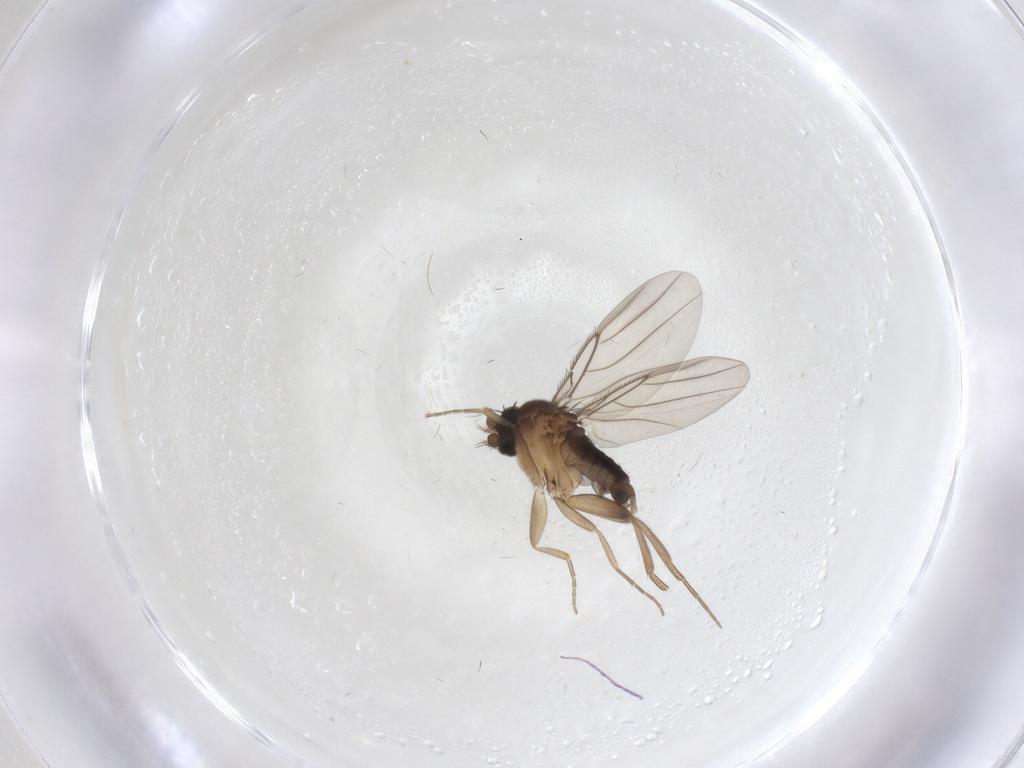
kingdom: Animalia
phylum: Arthropoda
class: Insecta
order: Diptera
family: Phoridae
